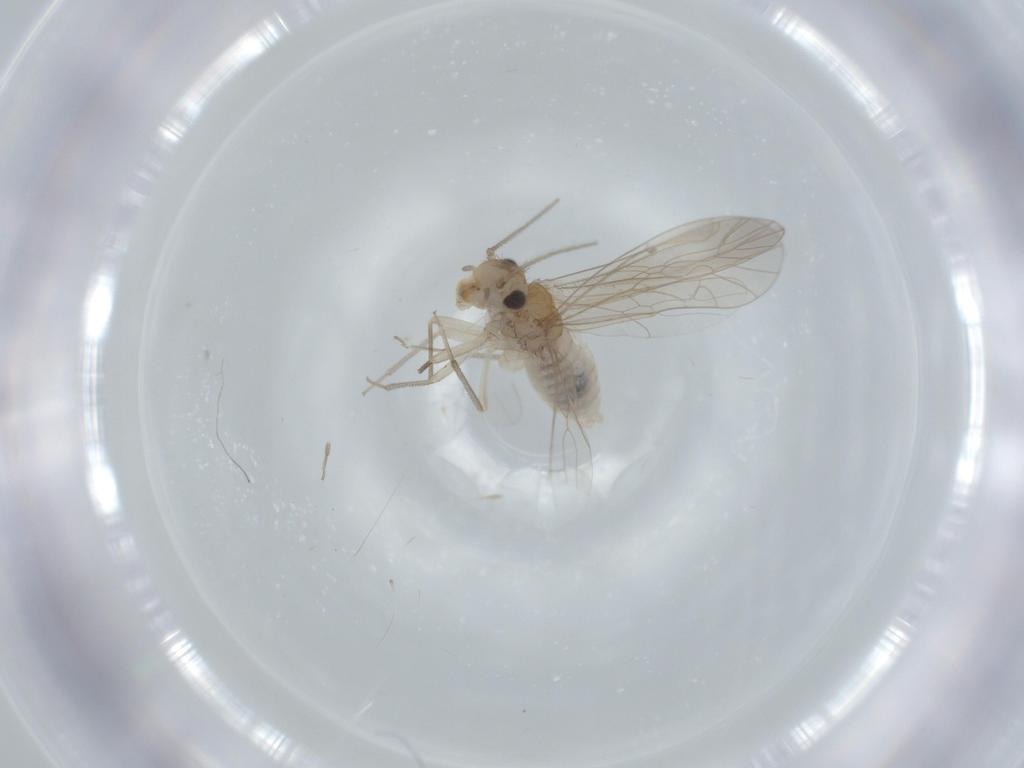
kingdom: Animalia
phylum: Arthropoda
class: Insecta
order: Psocodea
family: Caeciliusidae
